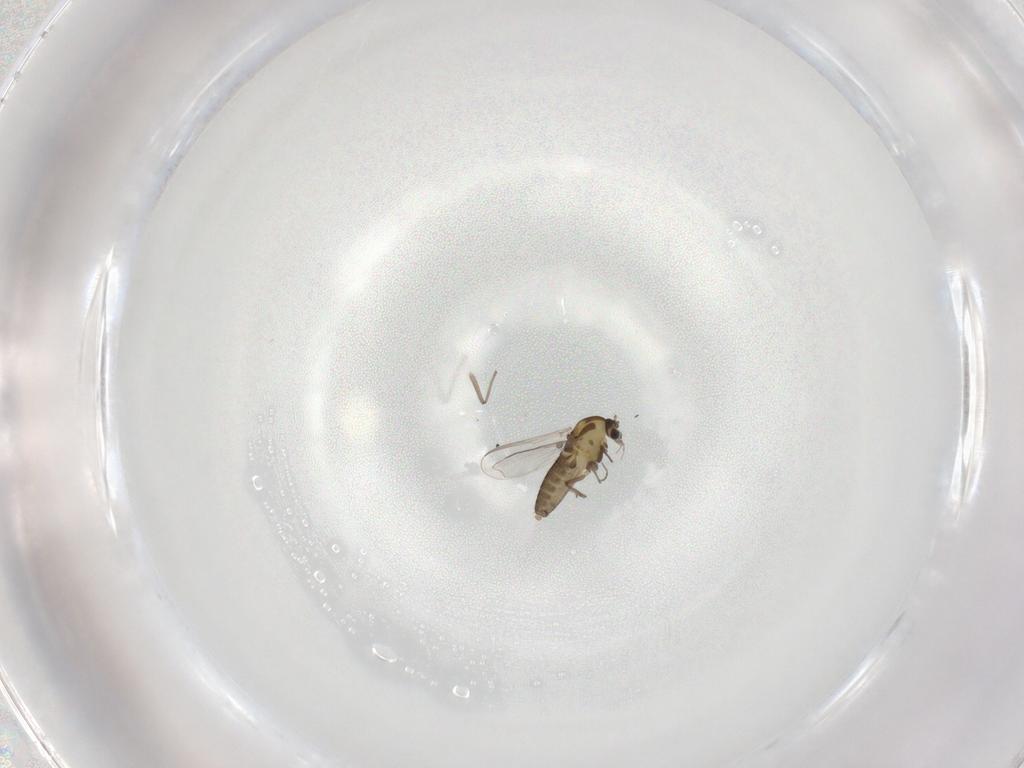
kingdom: Animalia
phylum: Arthropoda
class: Insecta
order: Diptera
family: Chironomidae
